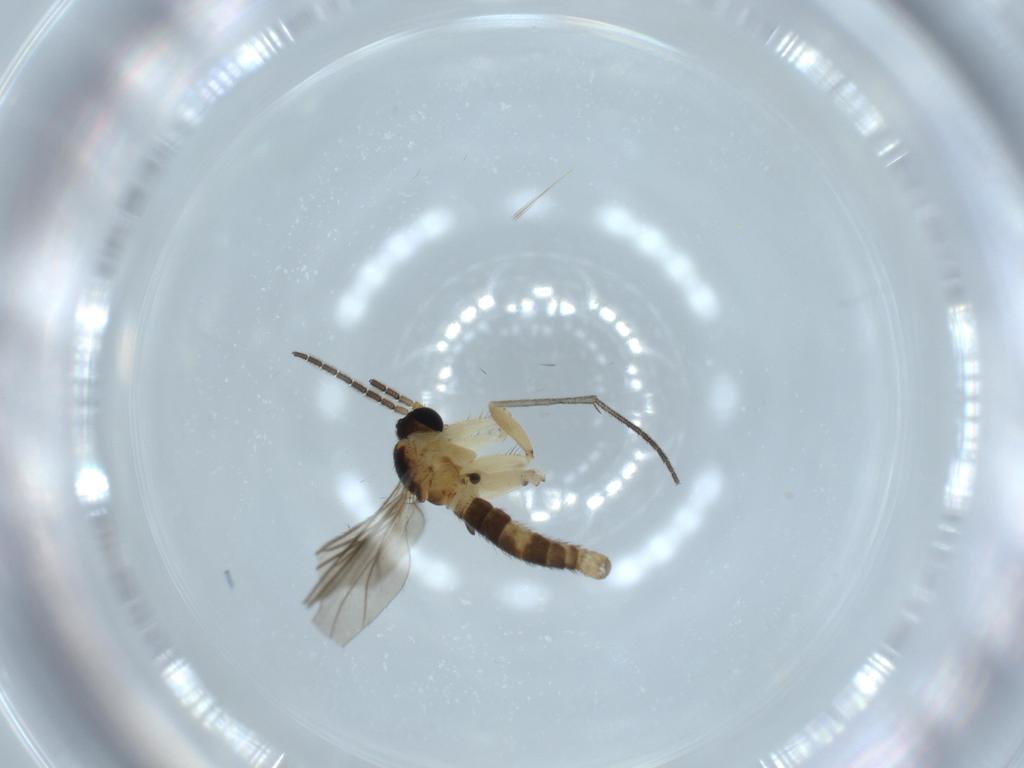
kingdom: Animalia
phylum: Arthropoda
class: Insecta
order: Diptera
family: Sciaridae
